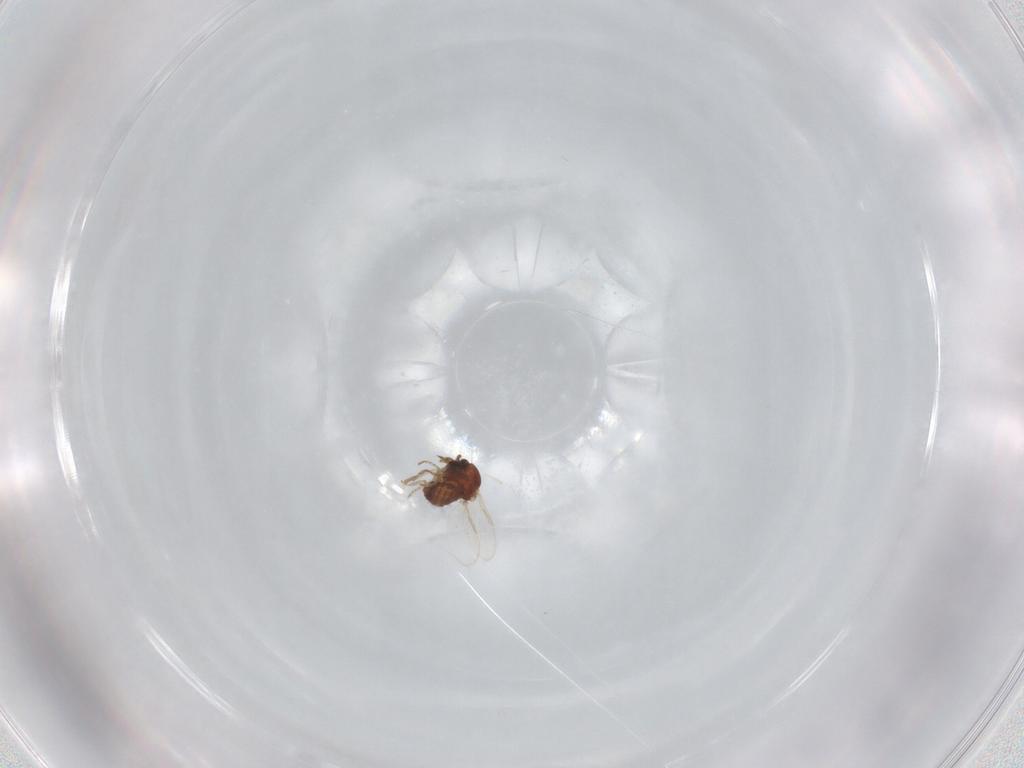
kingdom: Animalia
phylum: Arthropoda
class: Insecta
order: Diptera
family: Ceratopogonidae
